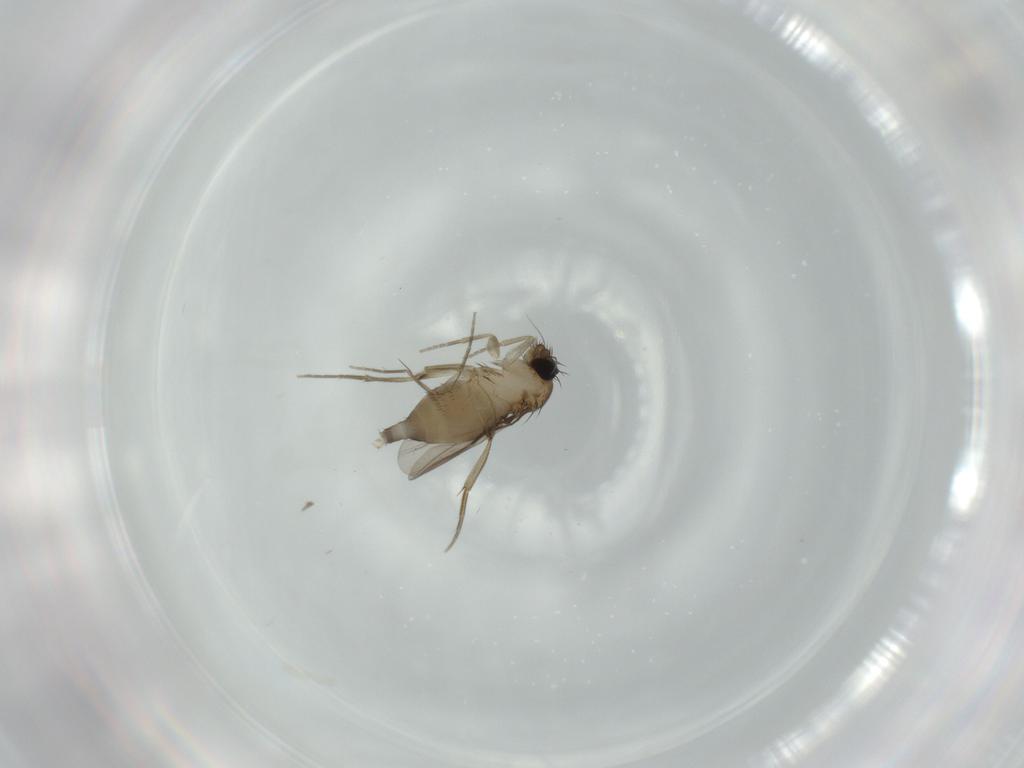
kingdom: Animalia
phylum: Arthropoda
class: Insecta
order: Diptera
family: Phoridae
